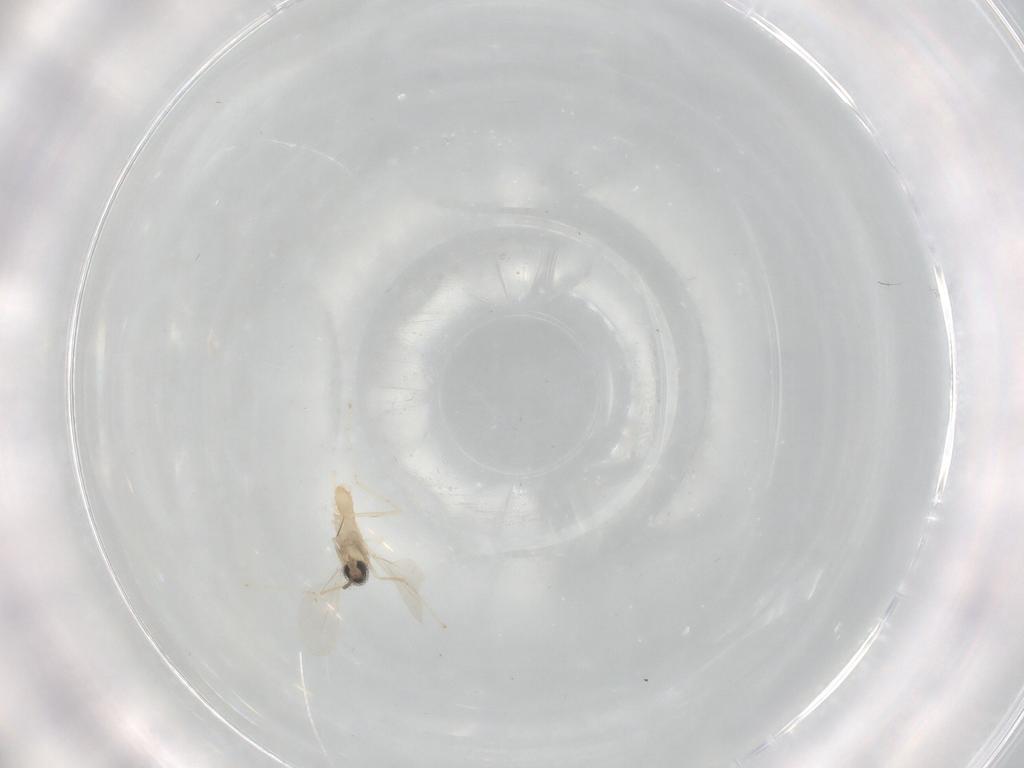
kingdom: Animalia
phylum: Arthropoda
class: Insecta
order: Diptera
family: Cecidomyiidae
